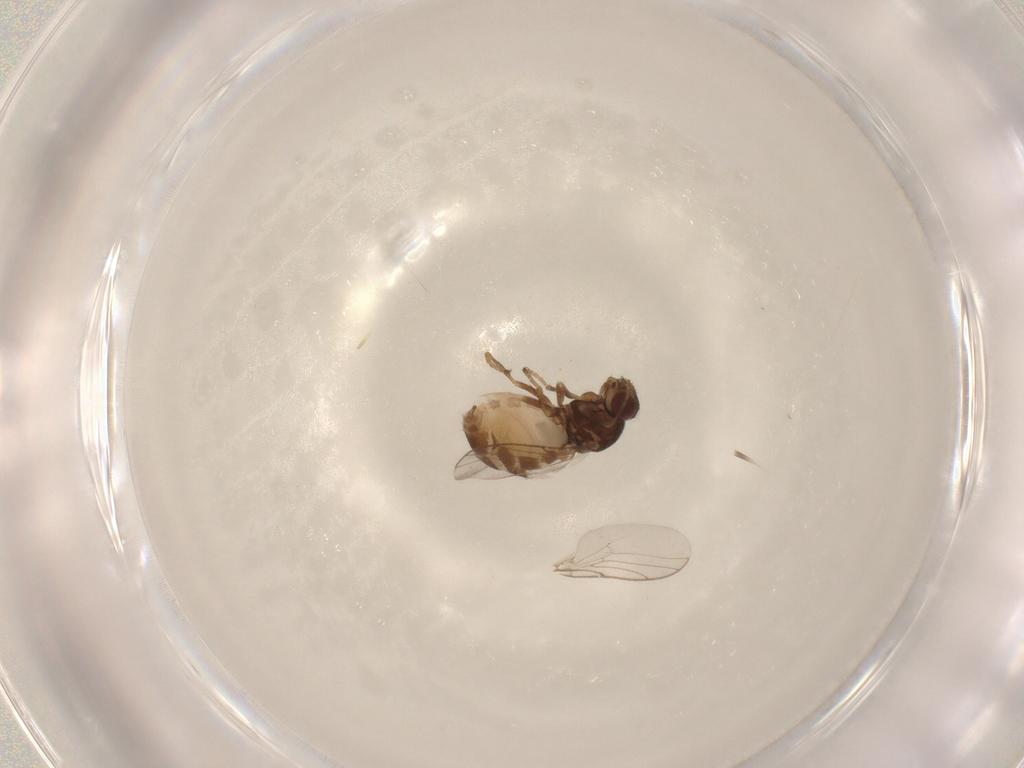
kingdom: Animalia
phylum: Arthropoda
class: Insecta
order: Diptera
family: Chloropidae
